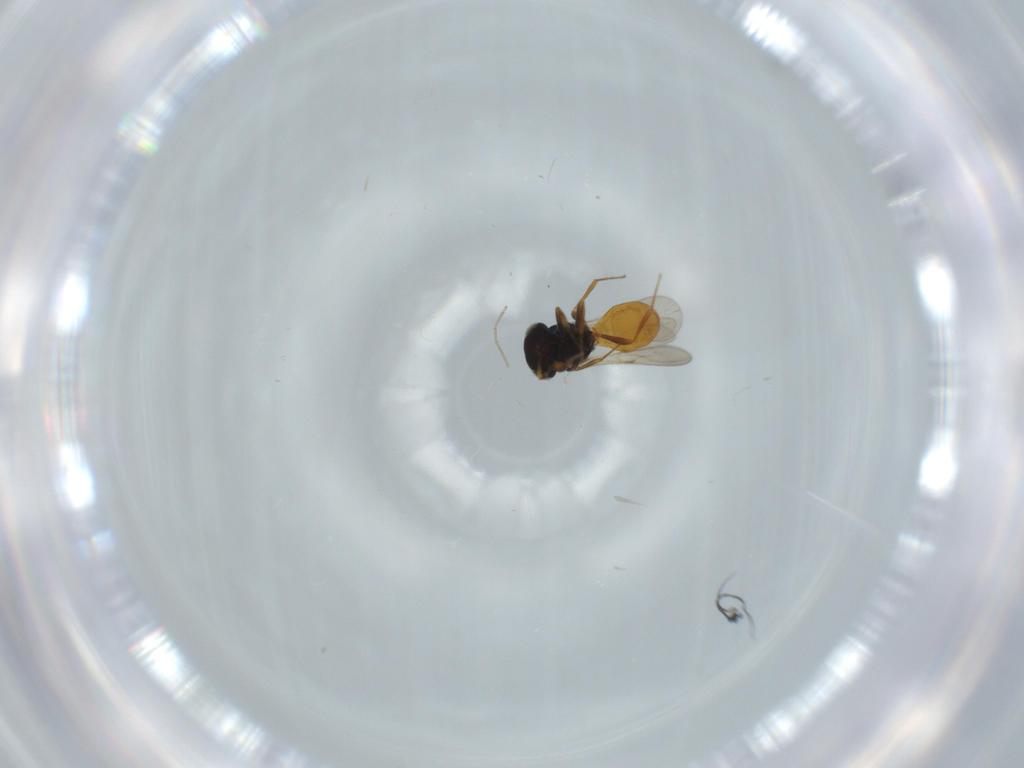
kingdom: Animalia
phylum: Arthropoda
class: Insecta
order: Hymenoptera
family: Scelionidae
